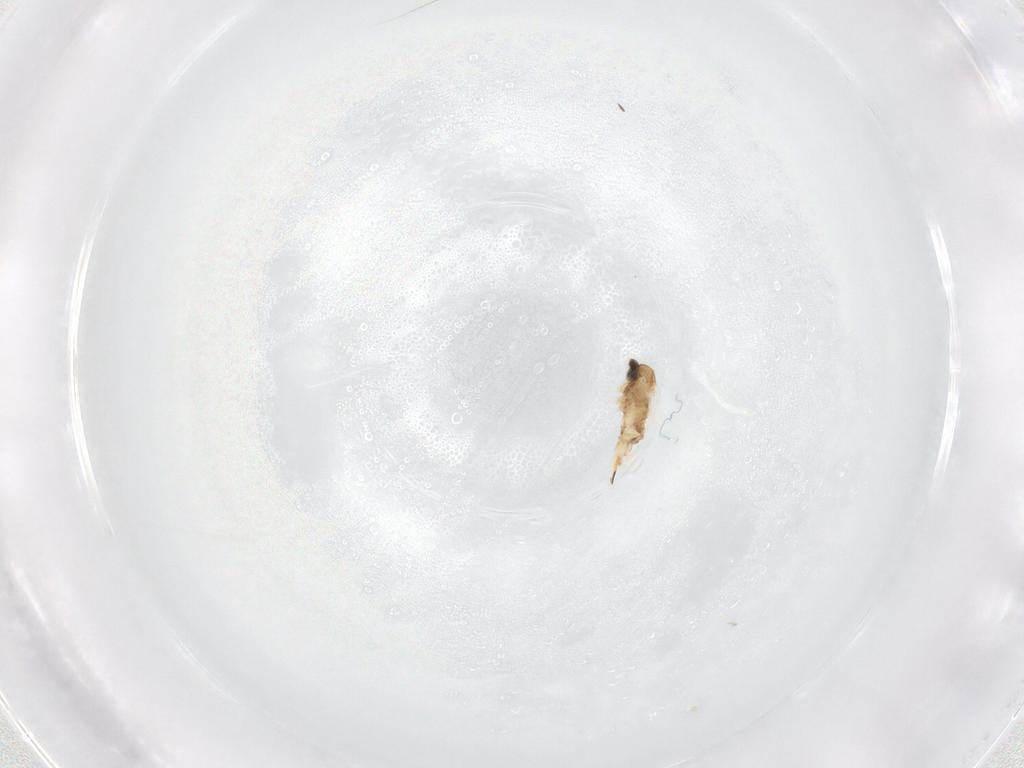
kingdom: Animalia
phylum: Arthropoda
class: Insecta
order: Diptera
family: Cecidomyiidae
